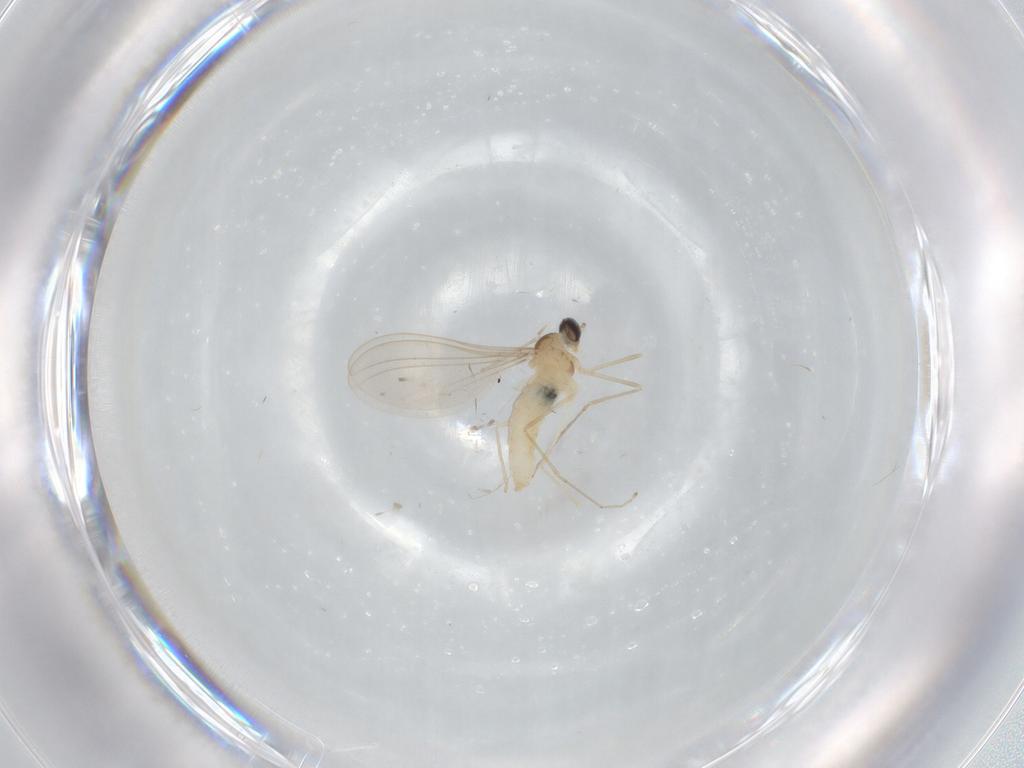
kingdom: Animalia
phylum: Arthropoda
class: Insecta
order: Diptera
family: Cecidomyiidae
